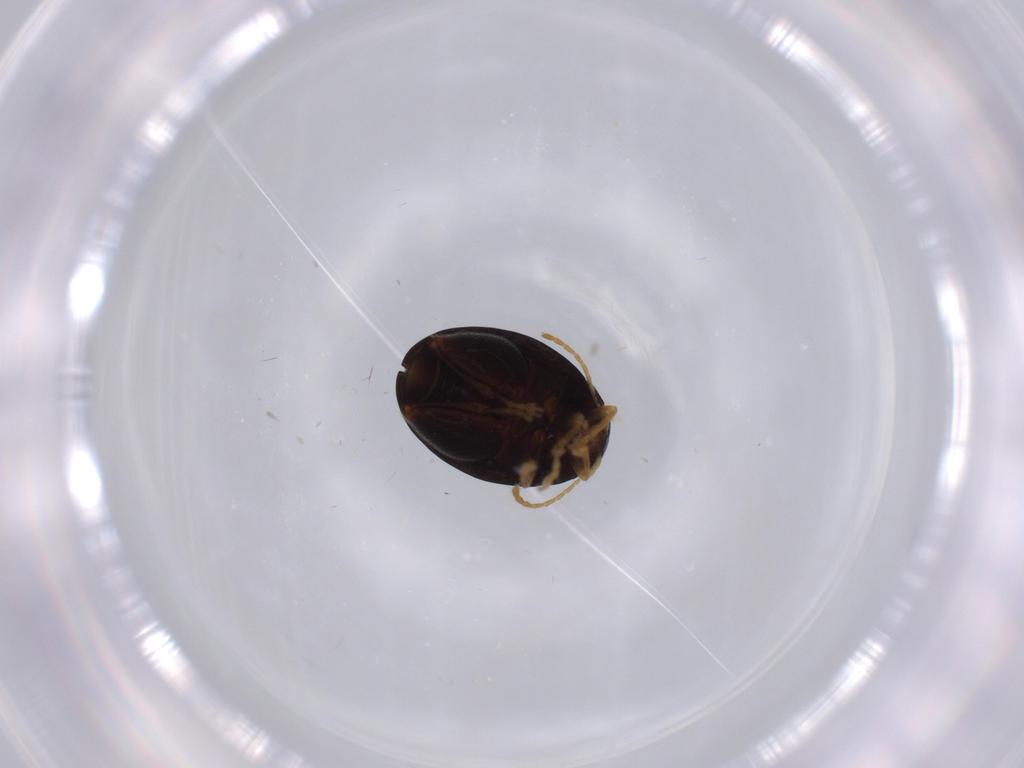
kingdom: Animalia
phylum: Arthropoda
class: Insecta
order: Coleoptera
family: Chrysomelidae
